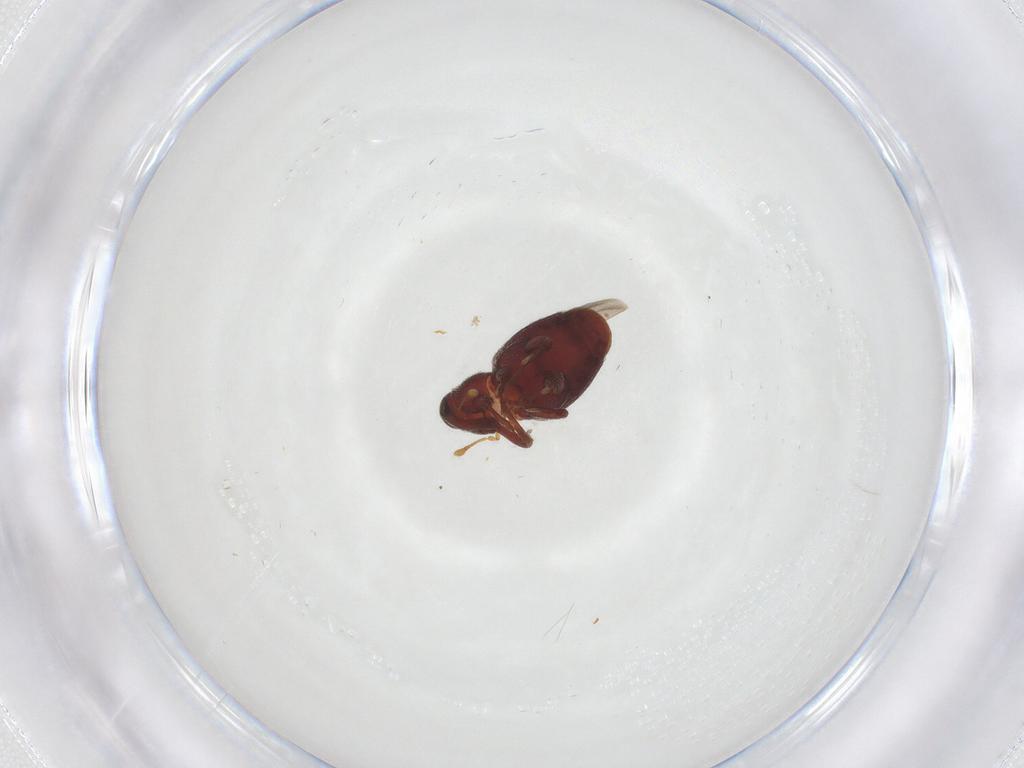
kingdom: Animalia
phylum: Arthropoda
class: Insecta
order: Coleoptera
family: Curculionidae
